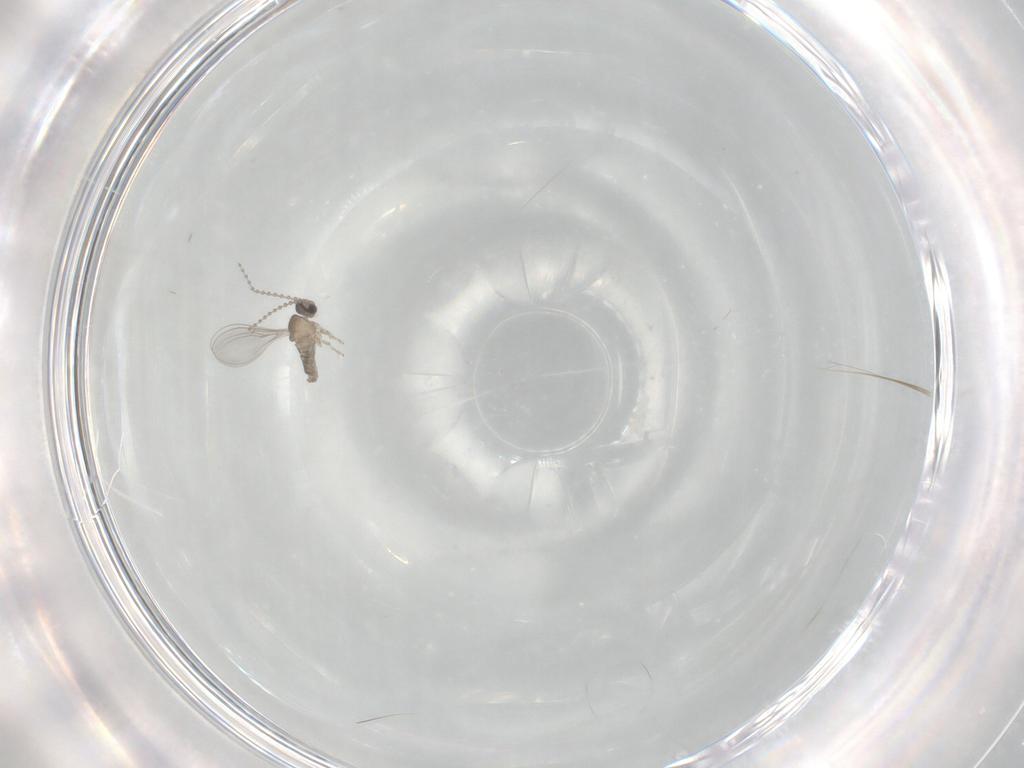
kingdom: Animalia
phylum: Arthropoda
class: Insecta
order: Diptera
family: Cecidomyiidae
